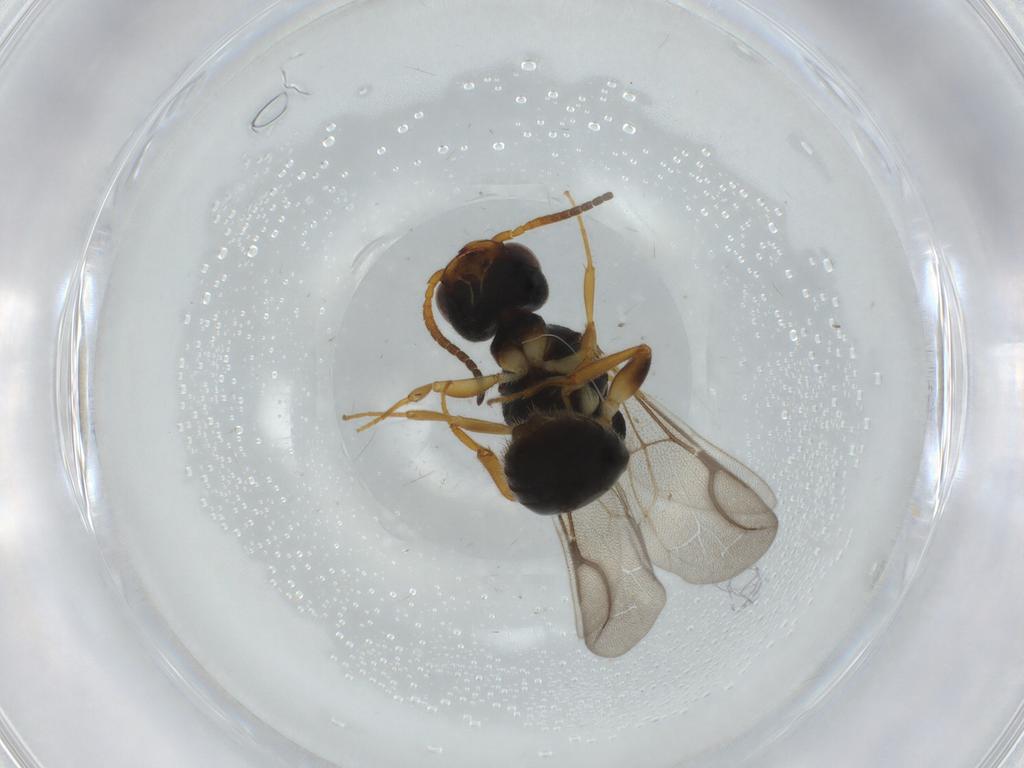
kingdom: Animalia
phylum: Arthropoda
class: Insecta
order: Hymenoptera
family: Bethylidae
